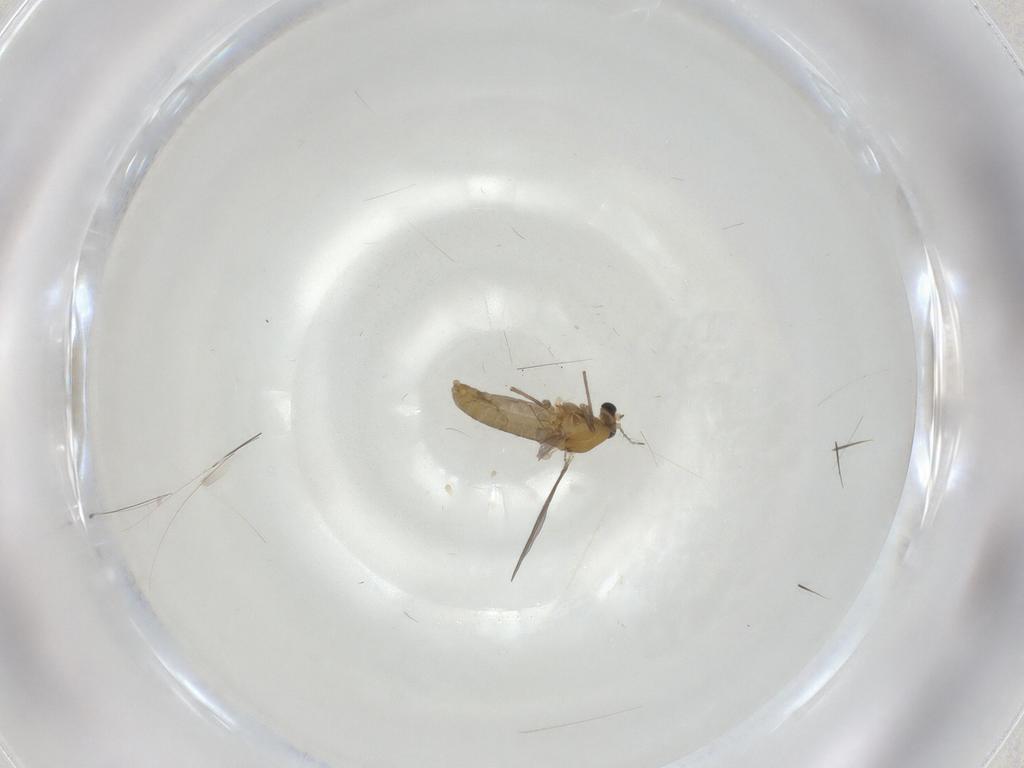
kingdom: Animalia
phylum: Arthropoda
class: Insecta
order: Diptera
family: Chironomidae
